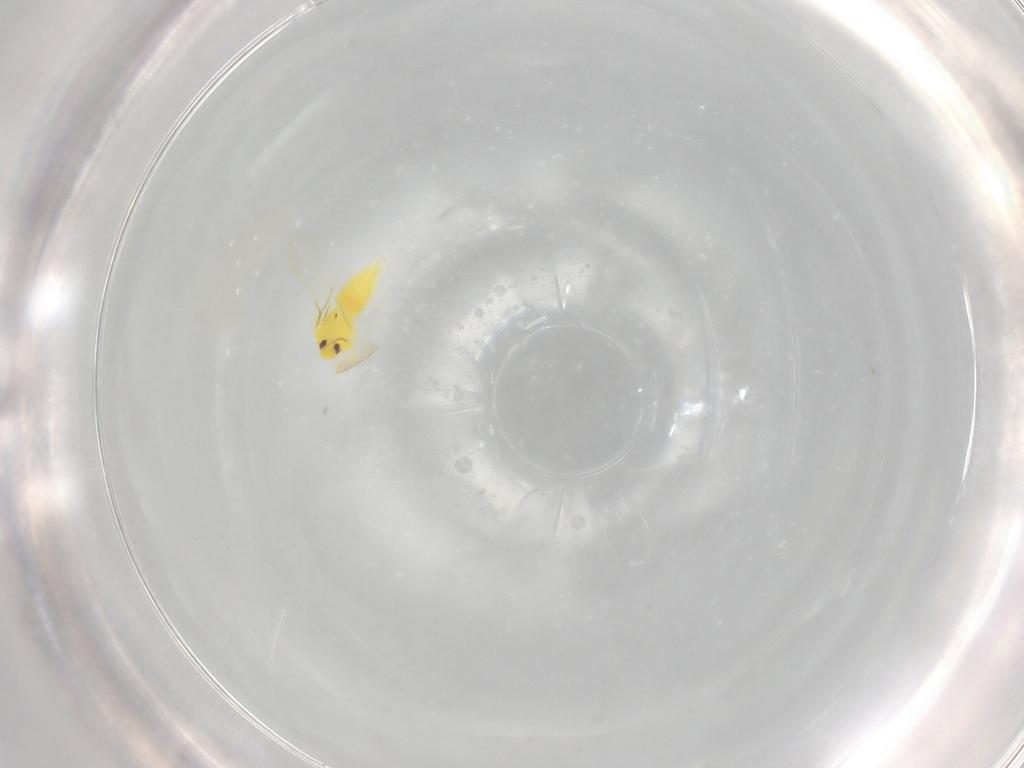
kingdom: Animalia
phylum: Arthropoda
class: Insecta
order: Hemiptera
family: Aleyrodidae
